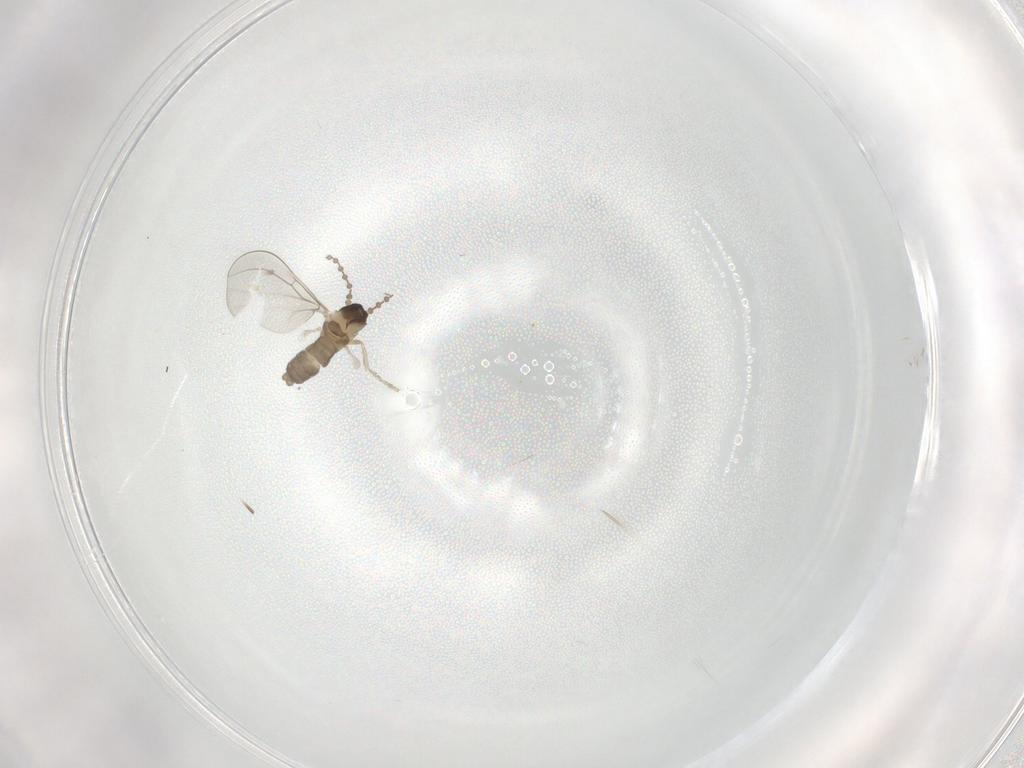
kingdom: Animalia
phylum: Arthropoda
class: Insecta
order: Diptera
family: Cecidomyiidae
